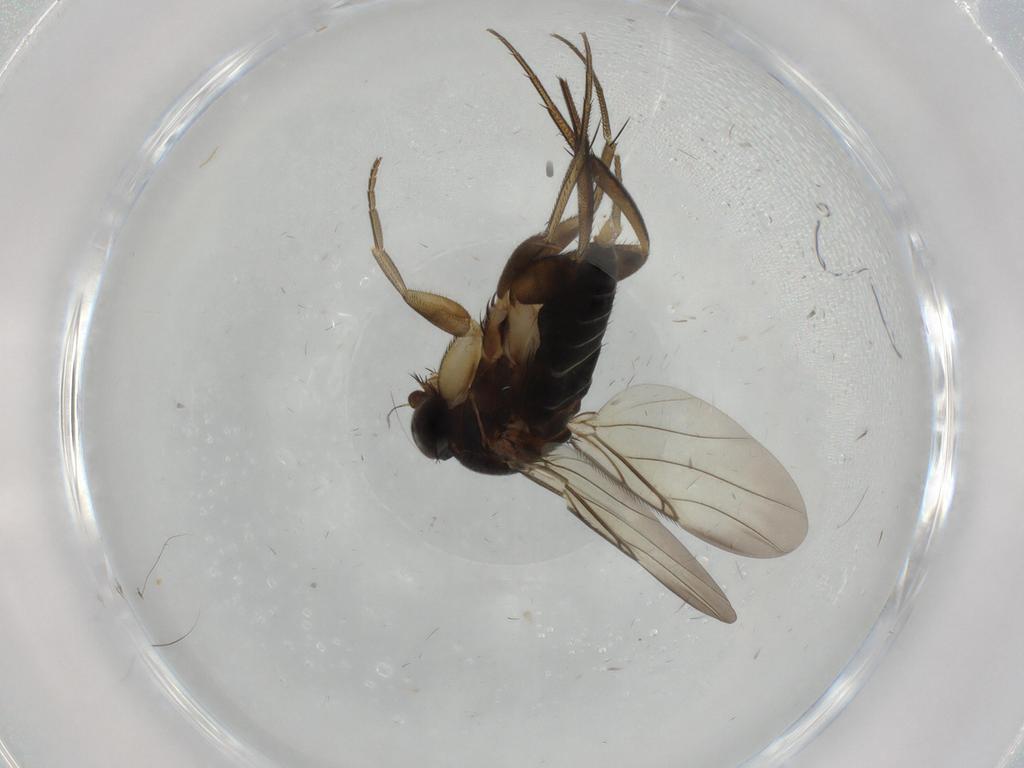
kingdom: Animalia
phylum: Arthropoda
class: Insecta
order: Diptera
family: Phoridae
